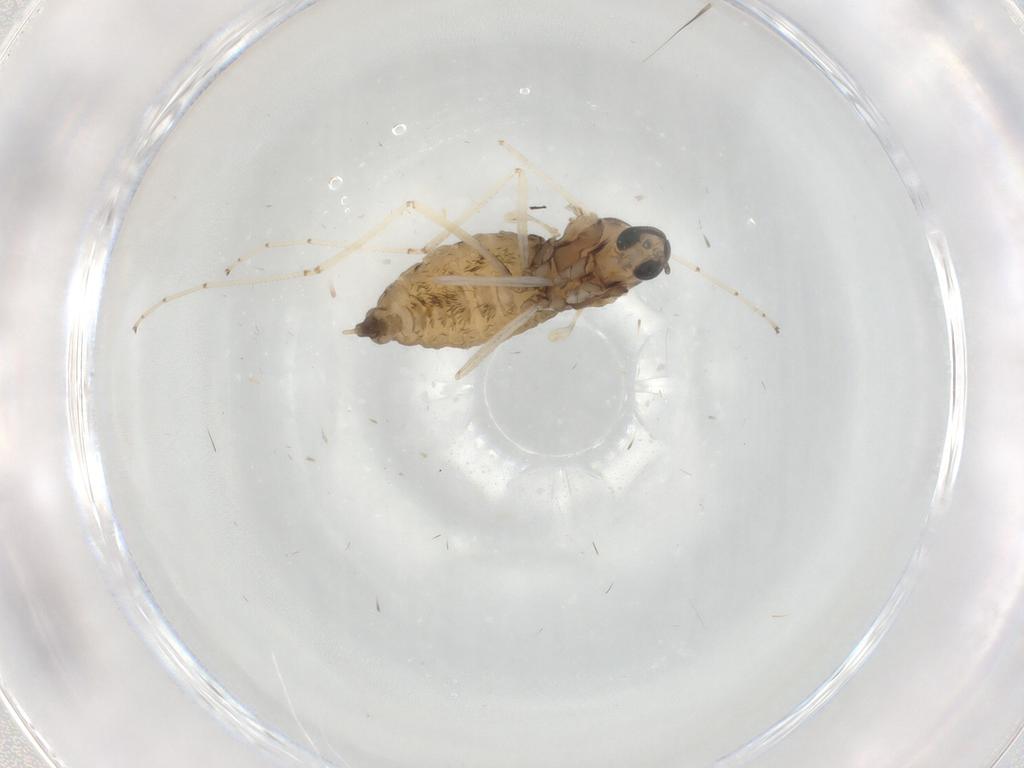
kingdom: Animalia
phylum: Arthropoda
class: Insecta
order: Diptera
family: Cecidomyiidae
